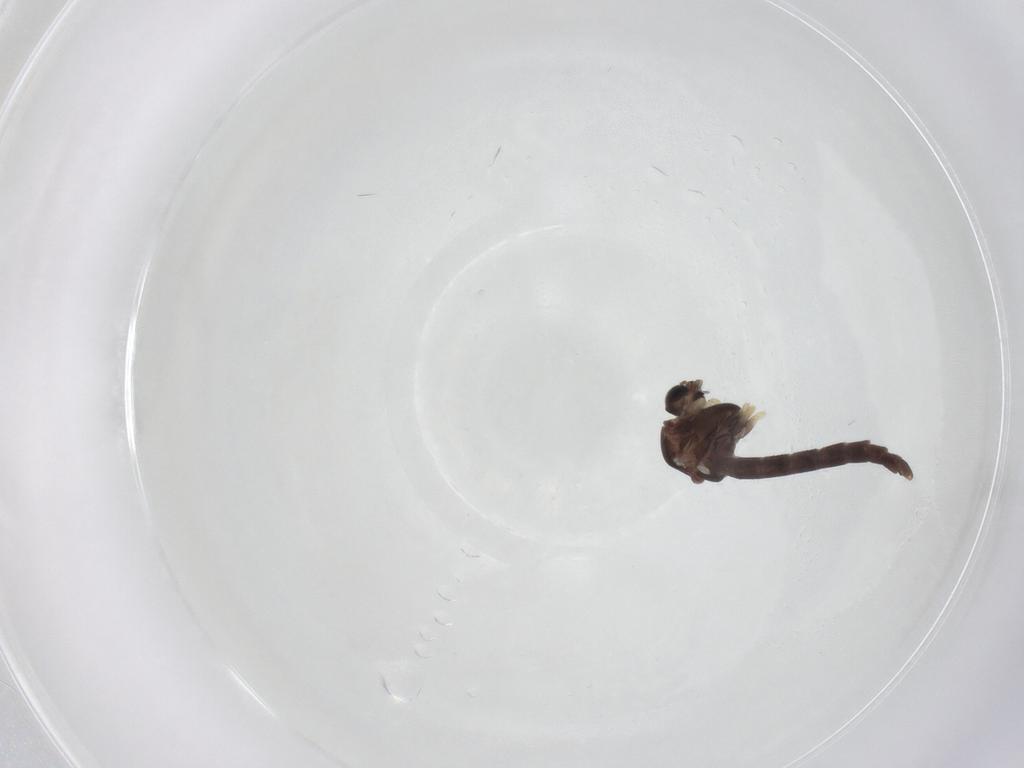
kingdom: Animalia
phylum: Arthropoda
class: Insecta
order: Diptera
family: Chironomidae
